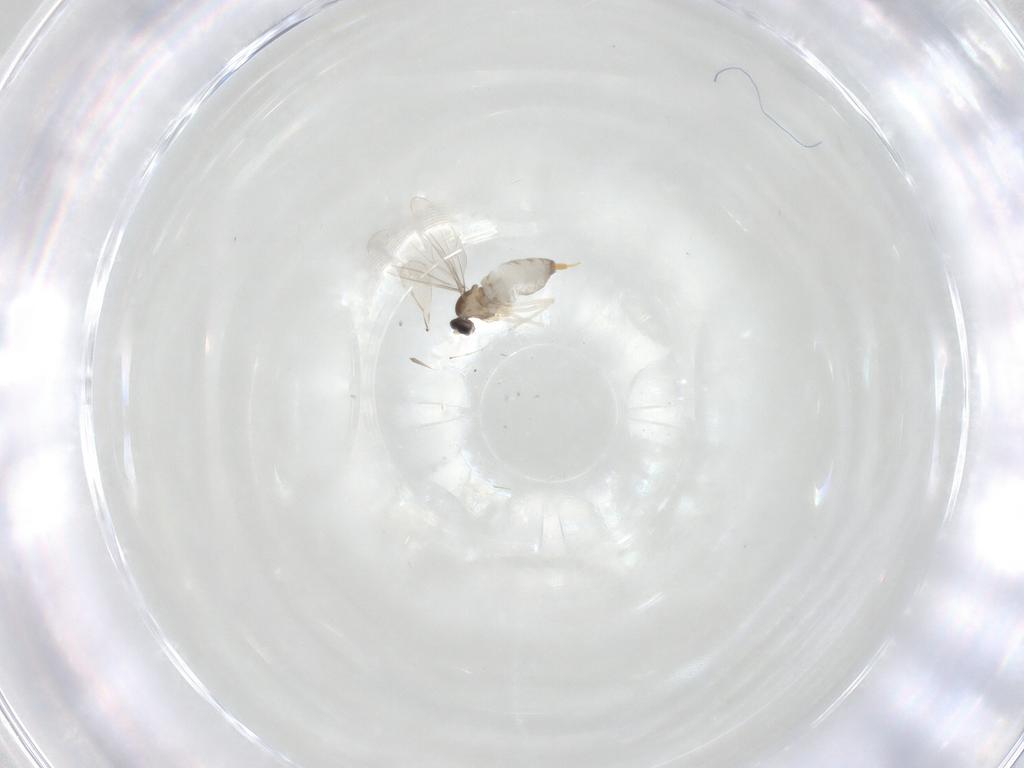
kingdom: Animalia
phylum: Arthropoda
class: Insecta
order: Diptera
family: Cecidomyiidae
